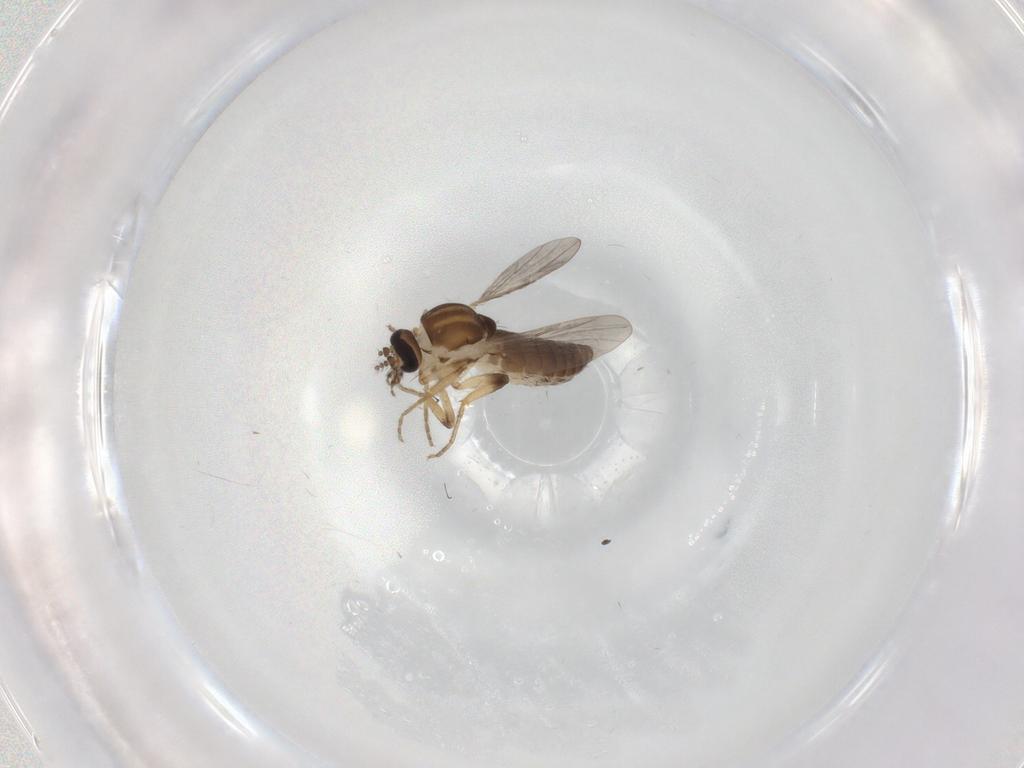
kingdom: Animalia
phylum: Arthropoda
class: Insecta
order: Diptera
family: Ceratopogonidae
